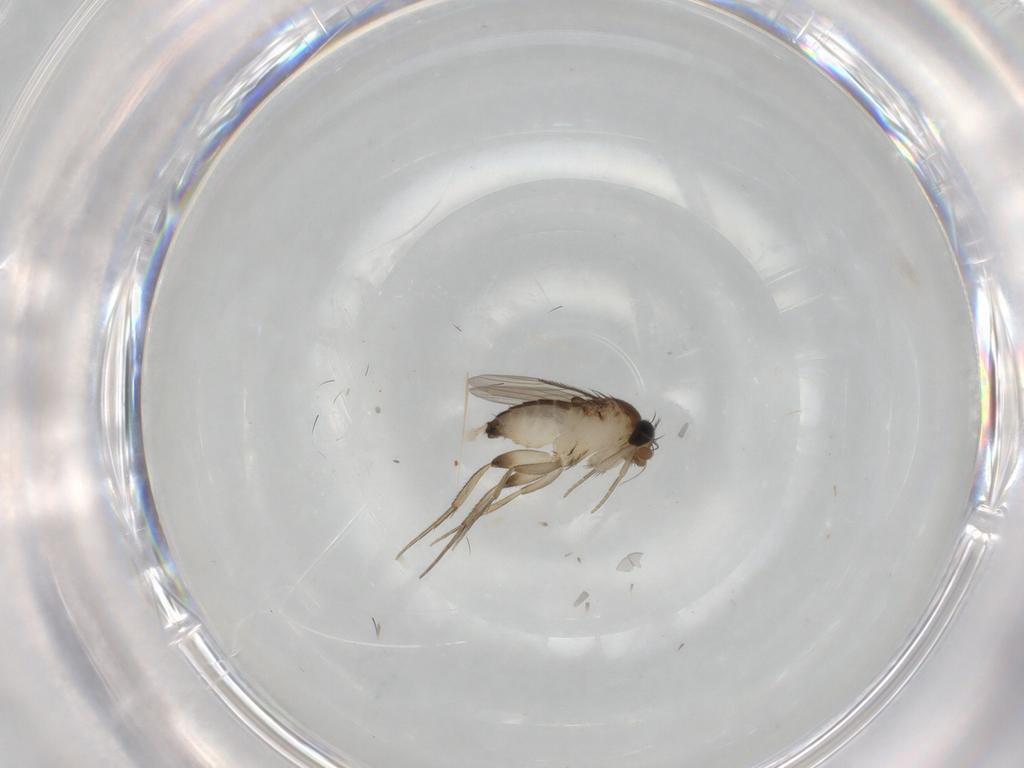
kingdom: Animalia
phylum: Arthropoda
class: Insecta
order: Diptera
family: Phoridae
